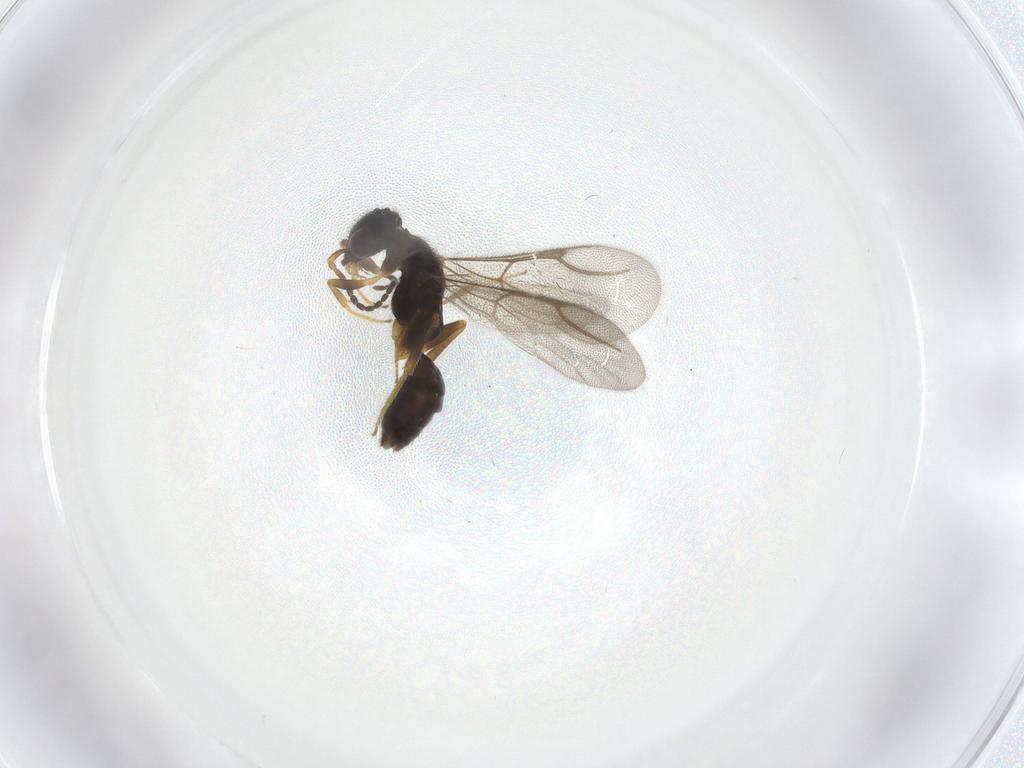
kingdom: Animalia
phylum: Arthropoda
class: Insecta
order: Hymenoptera
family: Bethylidae
